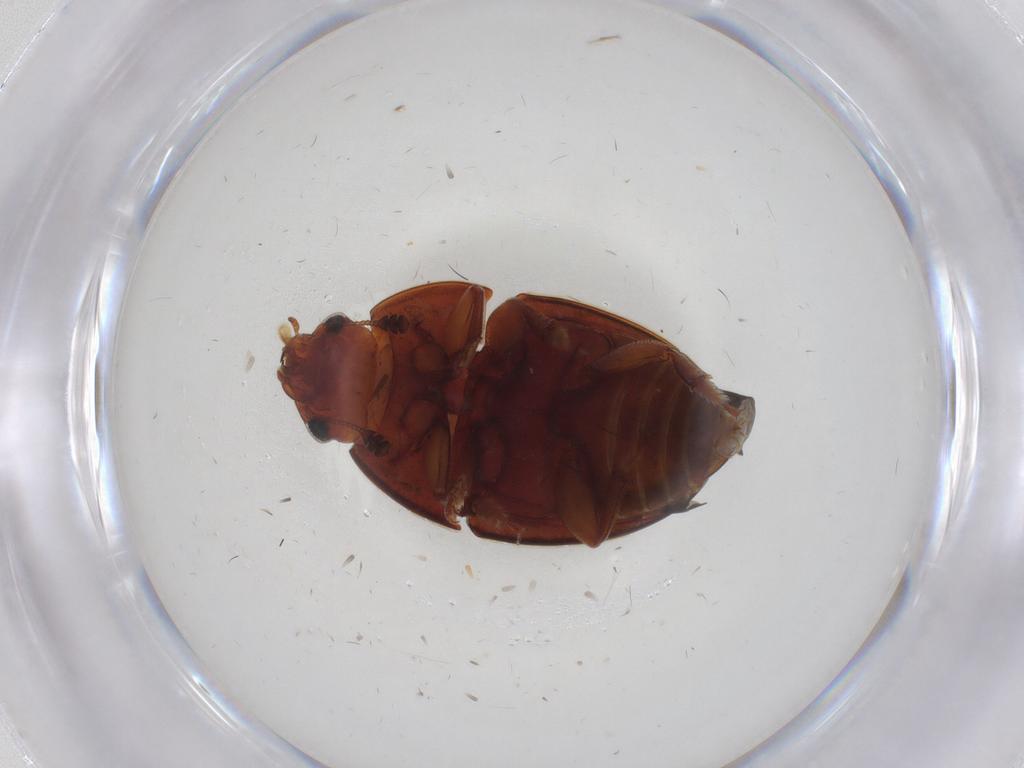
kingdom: Animalia
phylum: Arthropoda
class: Insecta
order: Coleoptera
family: Nitidulidae
